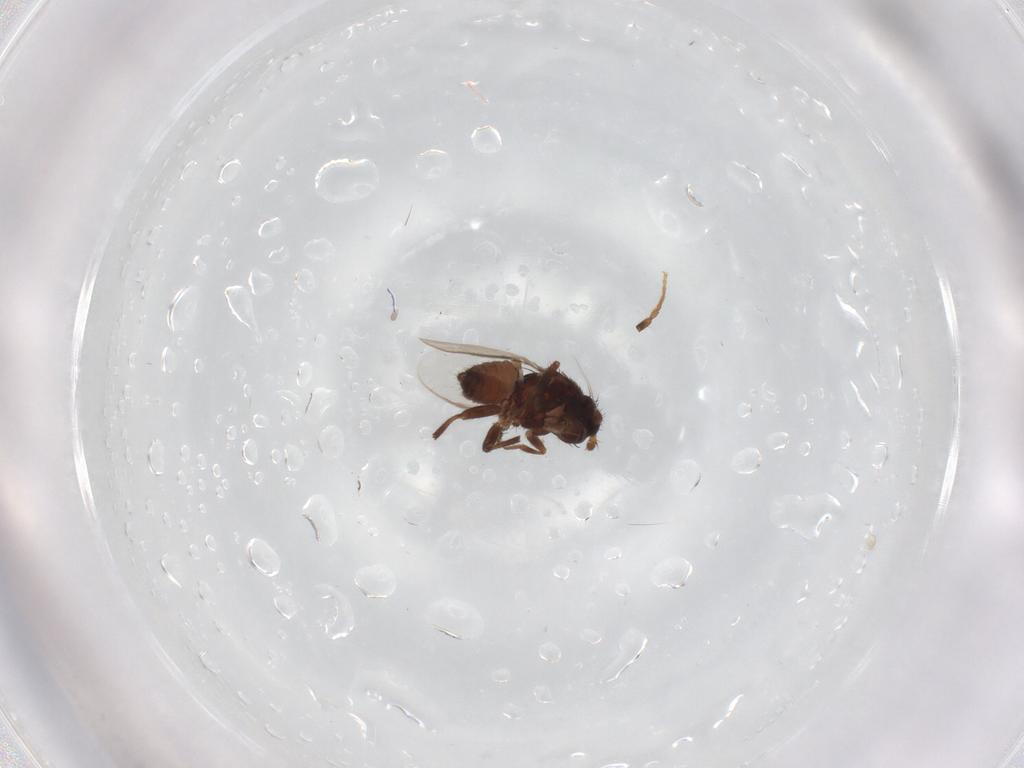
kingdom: Animalia
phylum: Arthropoda
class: Insecta
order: Diptera
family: Sphaeroceridae
